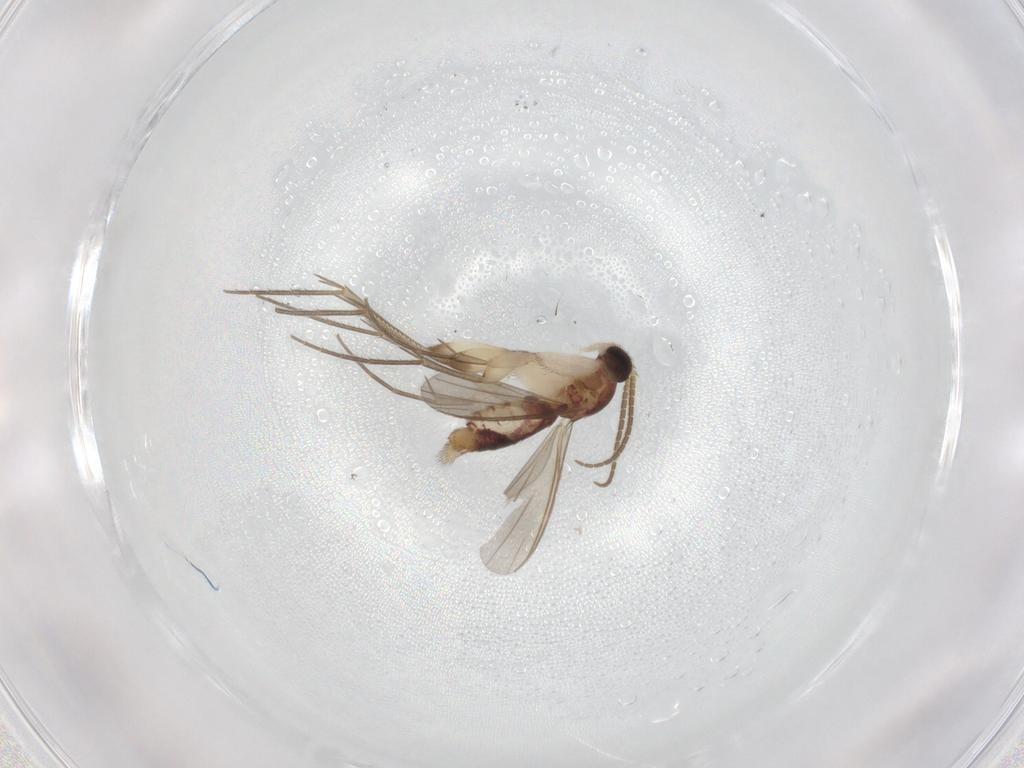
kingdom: Animalia
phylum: Arthropoda
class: Insecta
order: Diptera
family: Mycetophilidae
